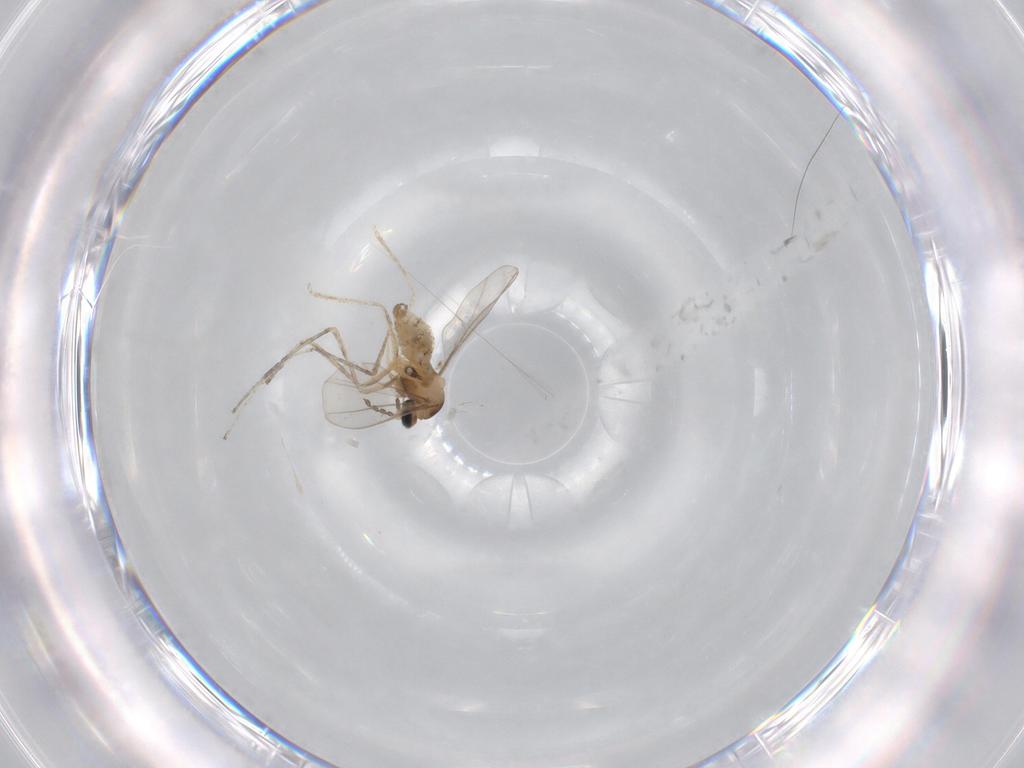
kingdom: Animalia
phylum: Arthropoda
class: Insecta
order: Diptera
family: Cecidomyiidae
